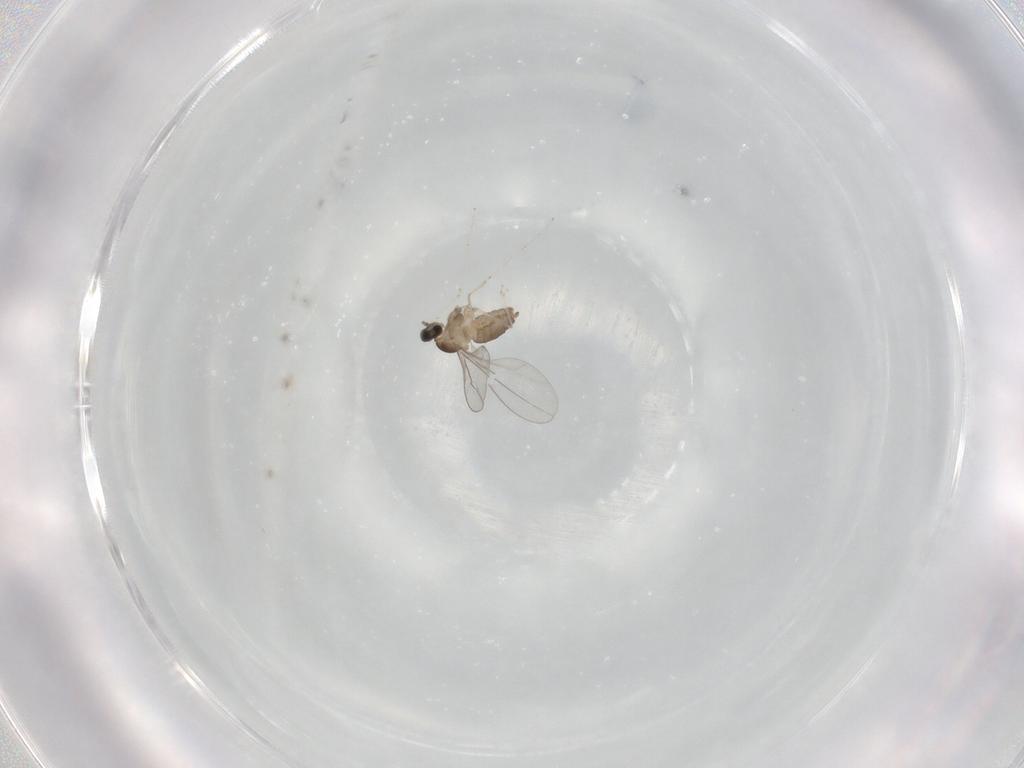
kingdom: Animalia
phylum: Arthropoda
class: Insecta
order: Diptera
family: Cecidomyiidae
